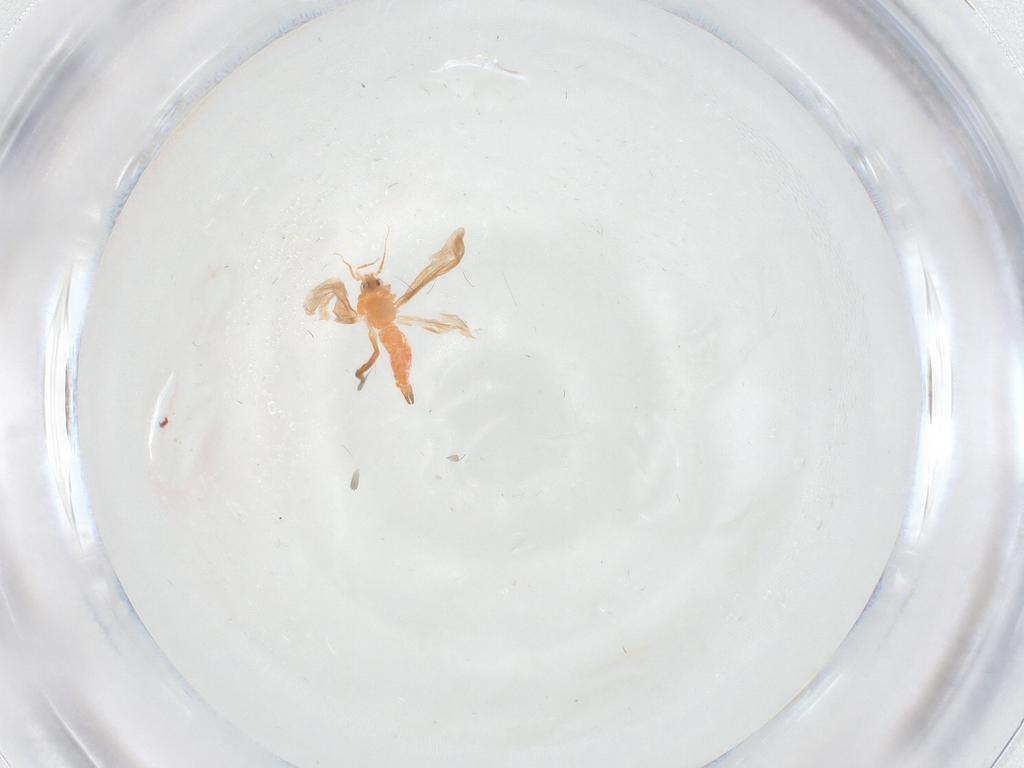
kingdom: Animalia
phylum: Arthropoda
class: Insecta
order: Hemiptera
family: Aleyrodidae
